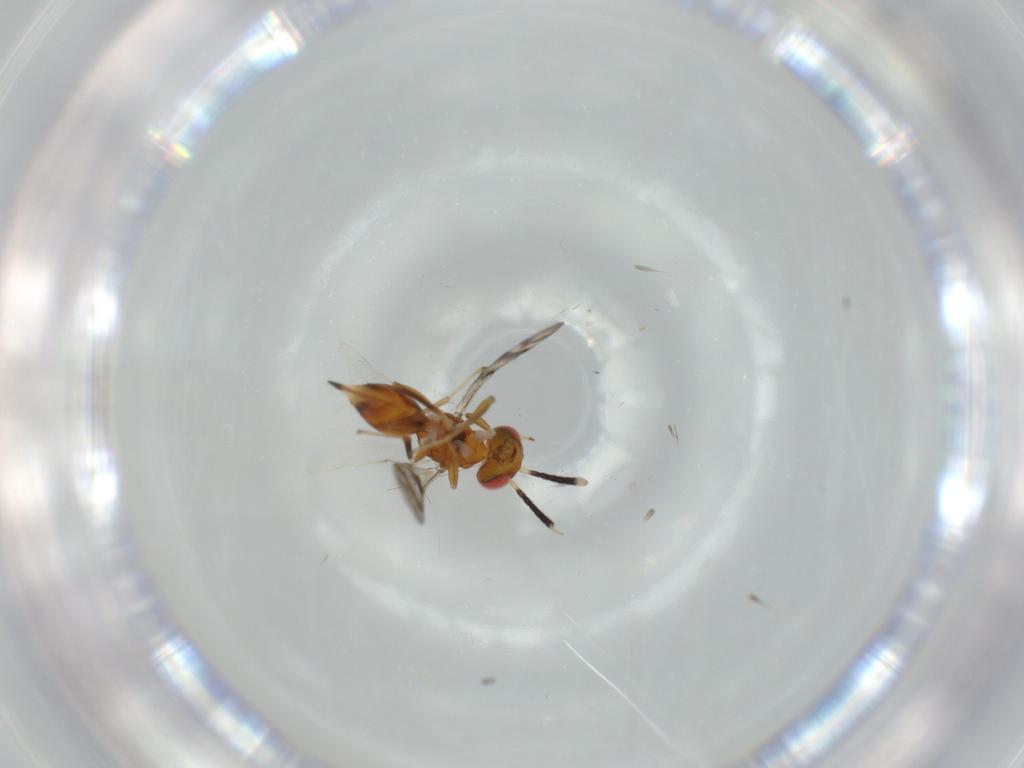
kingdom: Animalia
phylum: Arthropoda
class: Insecta
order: Hymenoptera
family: Diparidae
